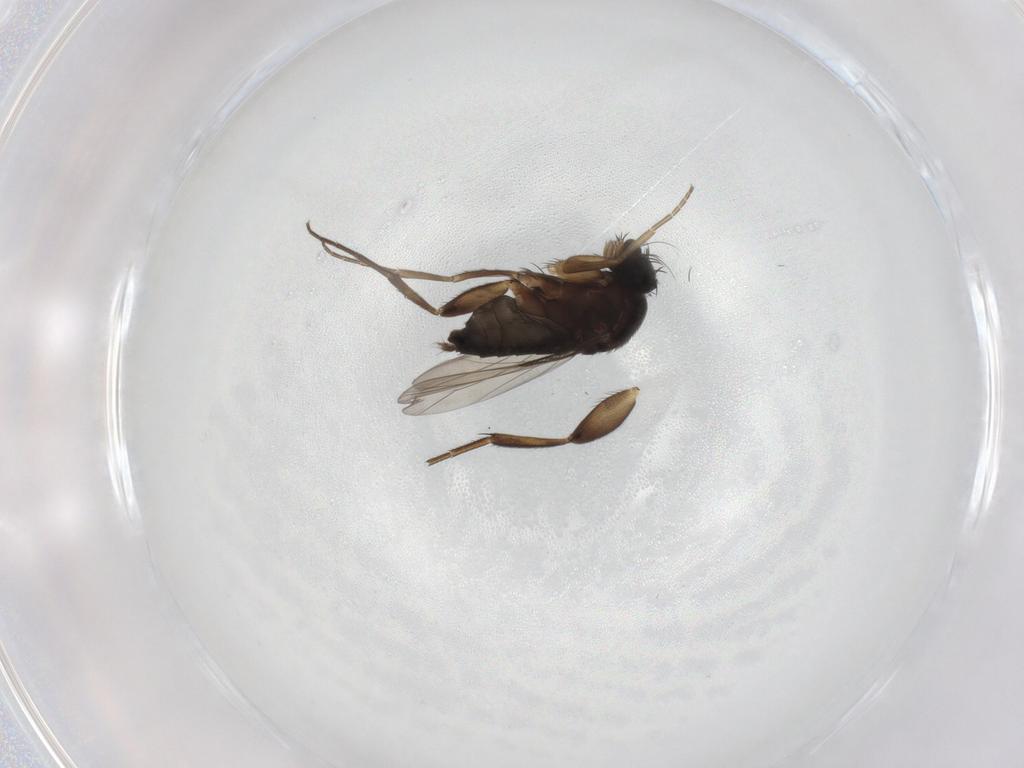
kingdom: Animalia
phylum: Arthropoda
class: Insecta
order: Diptera
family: Phoridae
